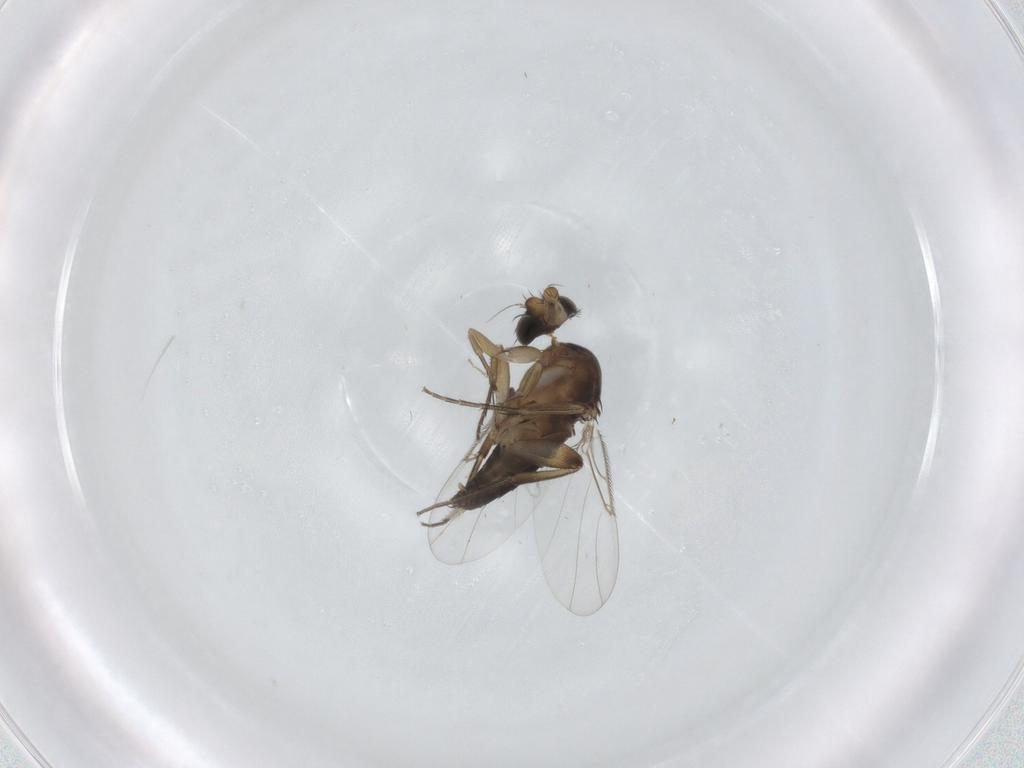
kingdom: Animalia
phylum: Arthropoda
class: Insecta
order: Diptera
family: Phoridae
